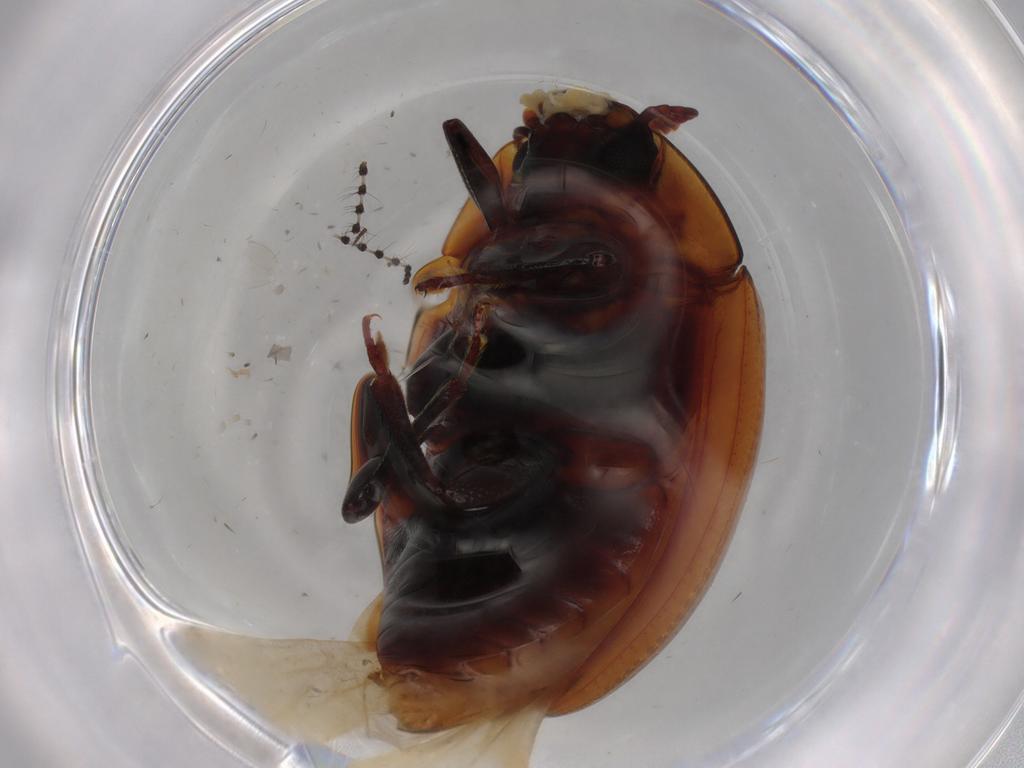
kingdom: Animalia
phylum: Arthropoda
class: Insecta
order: Coleoptera
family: Zopheridae
